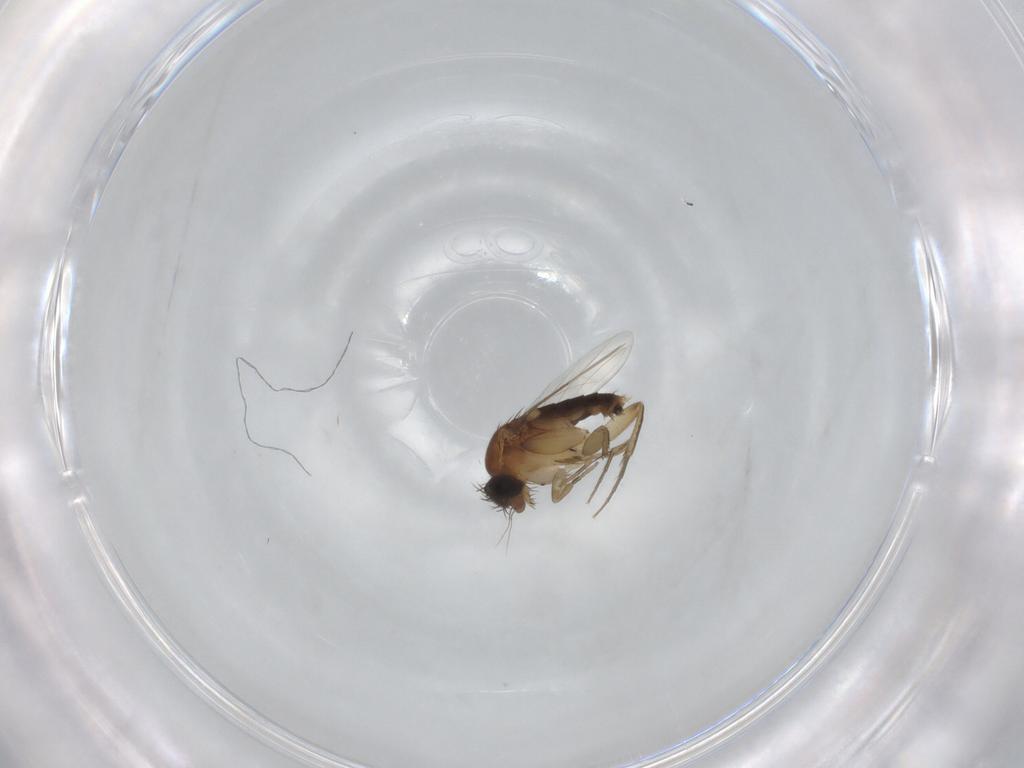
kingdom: Animalia
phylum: Arthropoda
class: Insecta
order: Diptera
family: Phoridae
